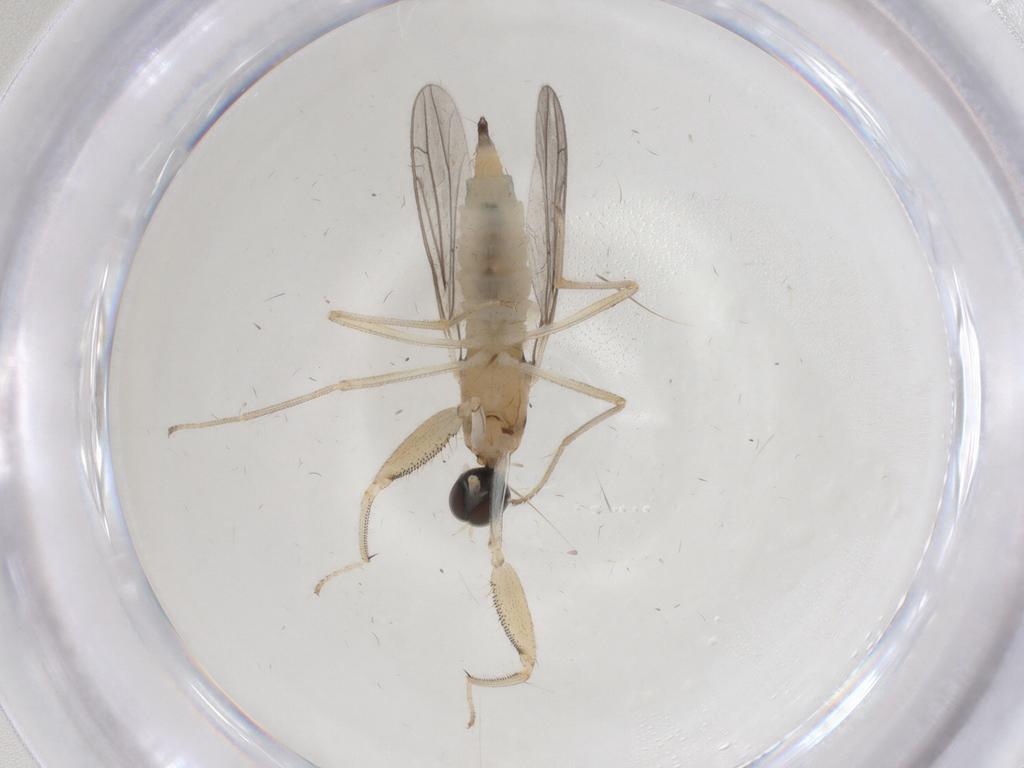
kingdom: Animalia
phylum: Arthropoda
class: Insecta
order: Diptera
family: Empididae
